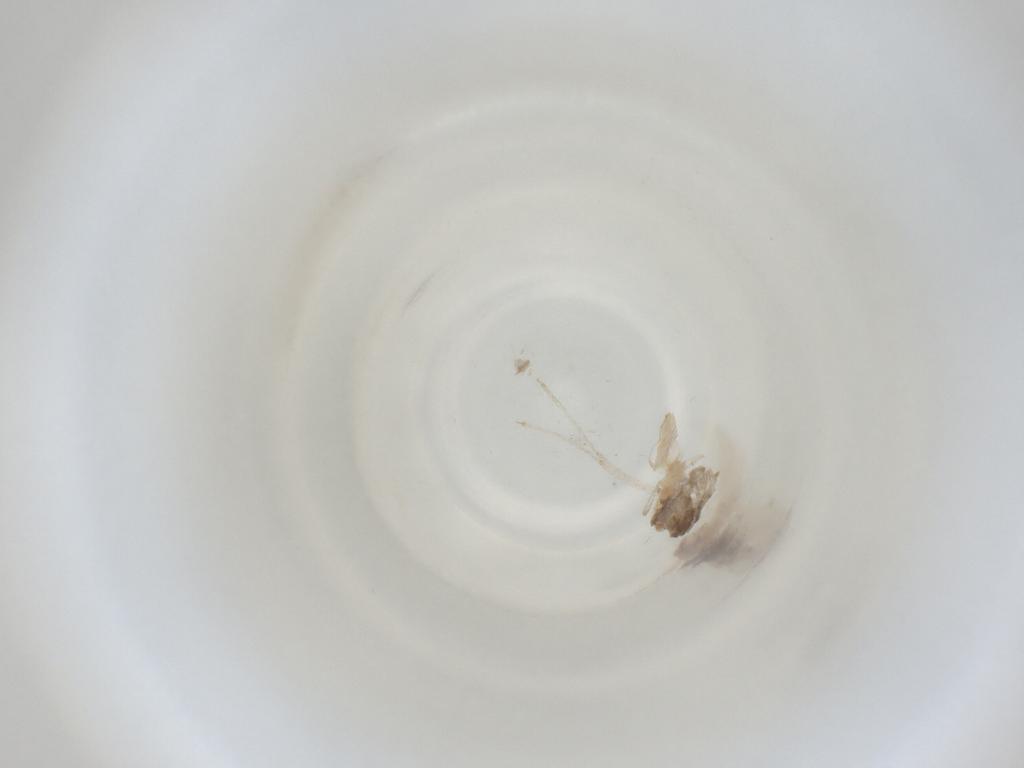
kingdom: Animalia
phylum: Arthropoda
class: Insecta
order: Diptera
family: Cecidomyiidae
